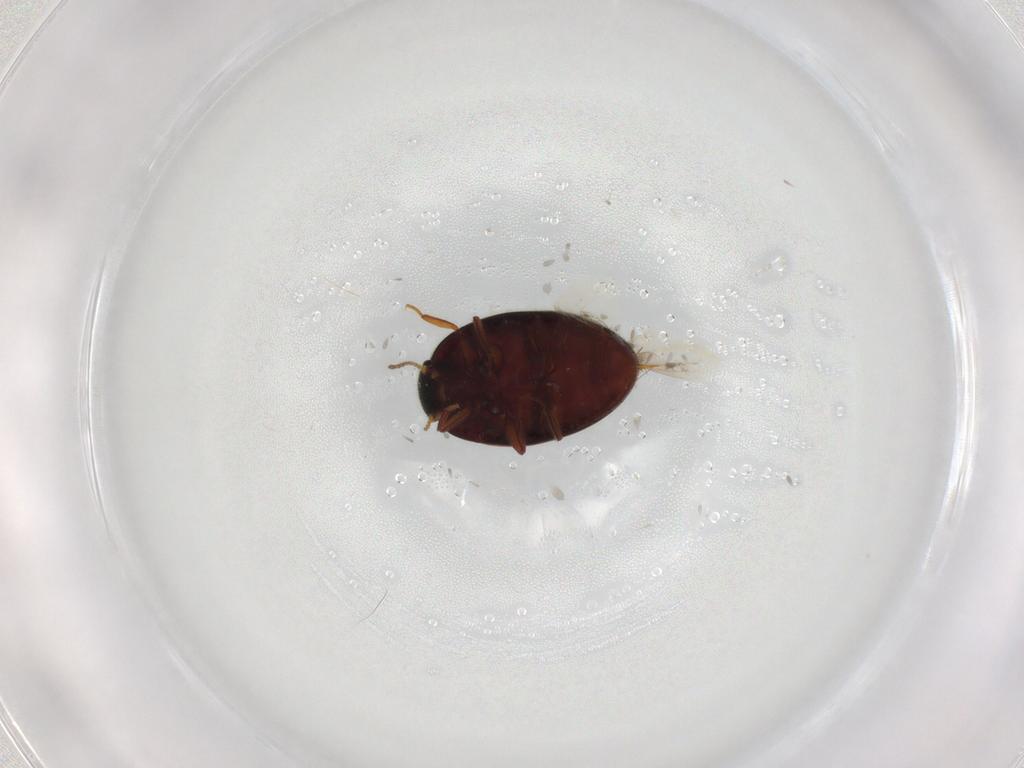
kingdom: Animalia
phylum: Arthropoda
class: Insecta
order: Coleoptera
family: Limnichidae
